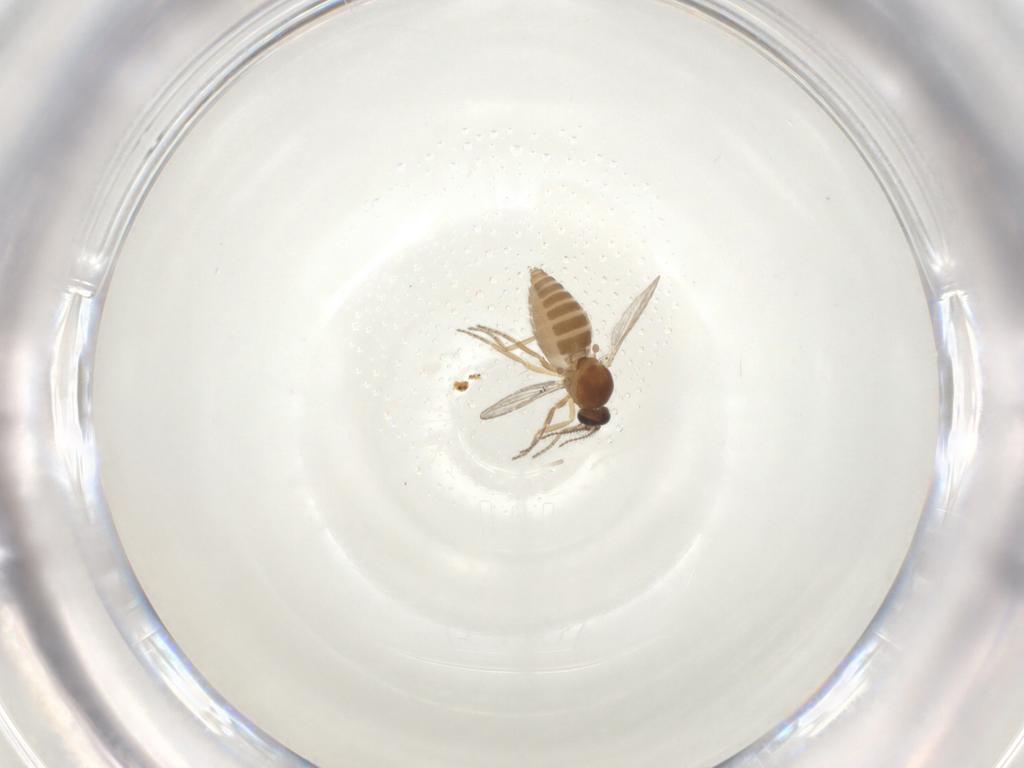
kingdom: Animalia
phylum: Arthropoda
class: Insecta
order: Diptera
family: Ceratopogonidae
